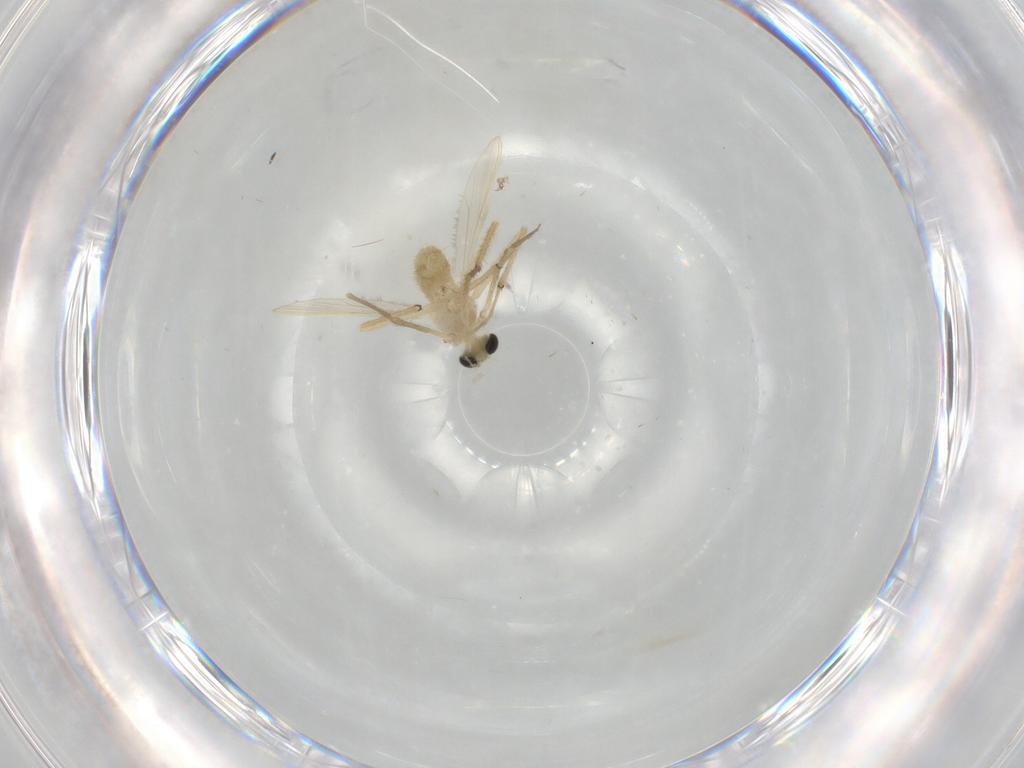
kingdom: Animalia
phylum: Arthropoda
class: Insecta
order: Diptera
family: Chironomidae
